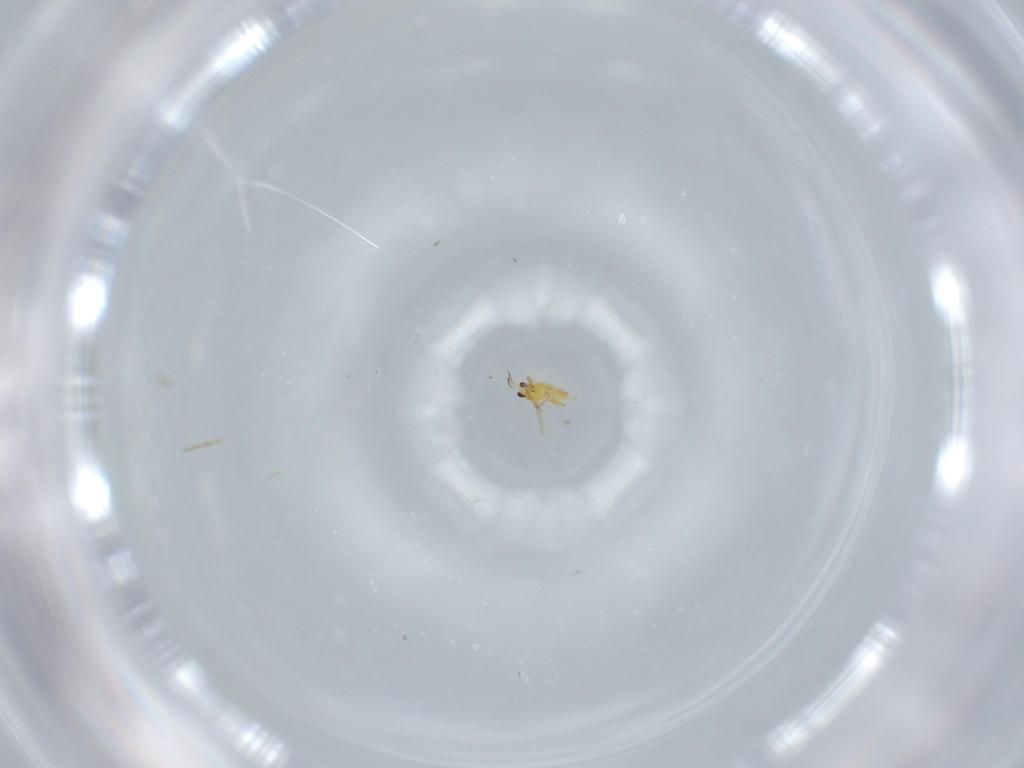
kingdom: Animalia
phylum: Arthropoda
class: Insecta
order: Thysanoptera
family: Thripidae
